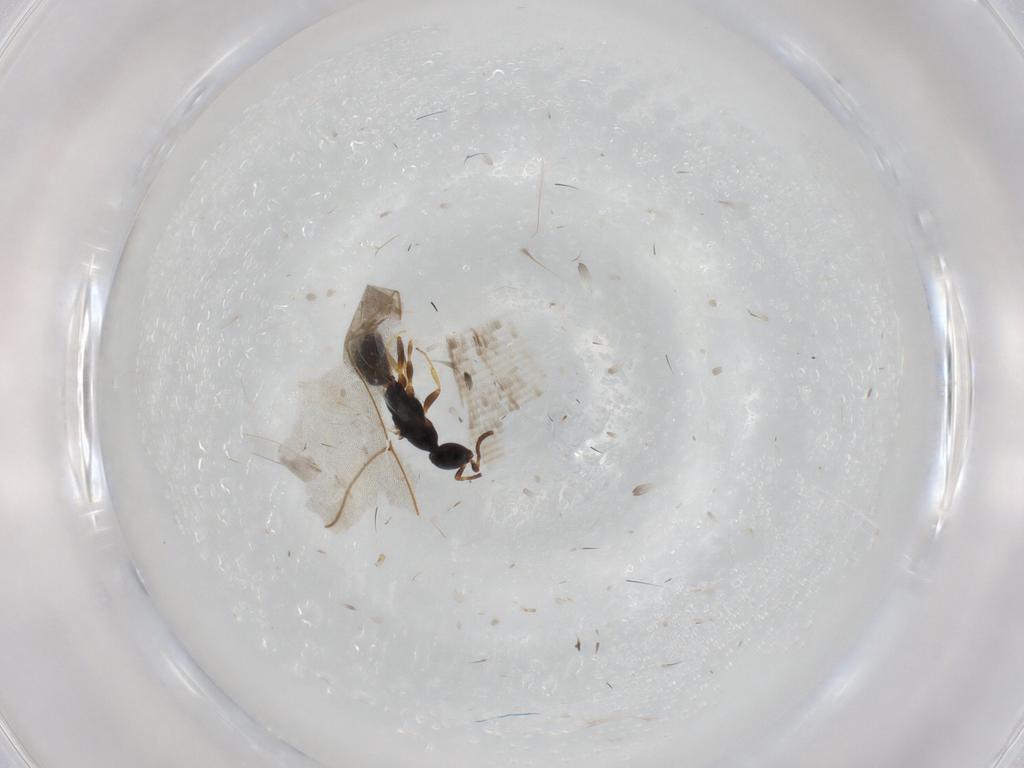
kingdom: Animalia
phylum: Arthropoda
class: Insecta
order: Hymenoptera
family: Bethylidae
